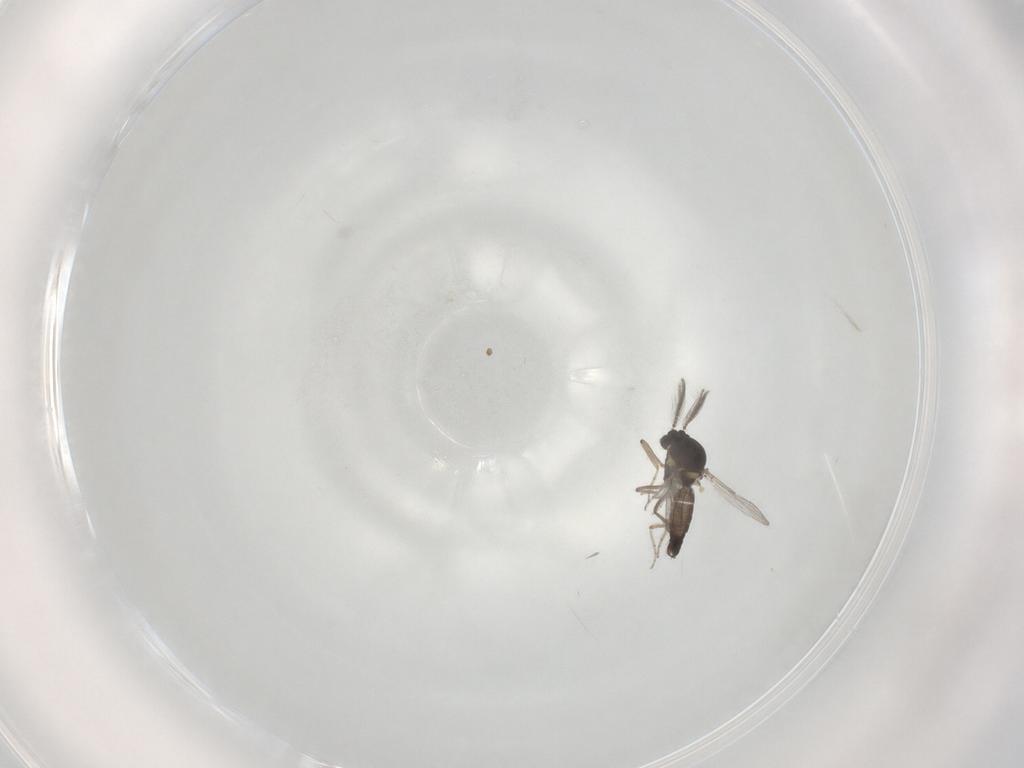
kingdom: Animalia
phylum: Arthropoda
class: Insecta
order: Diptera
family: Ceratopogonidae
